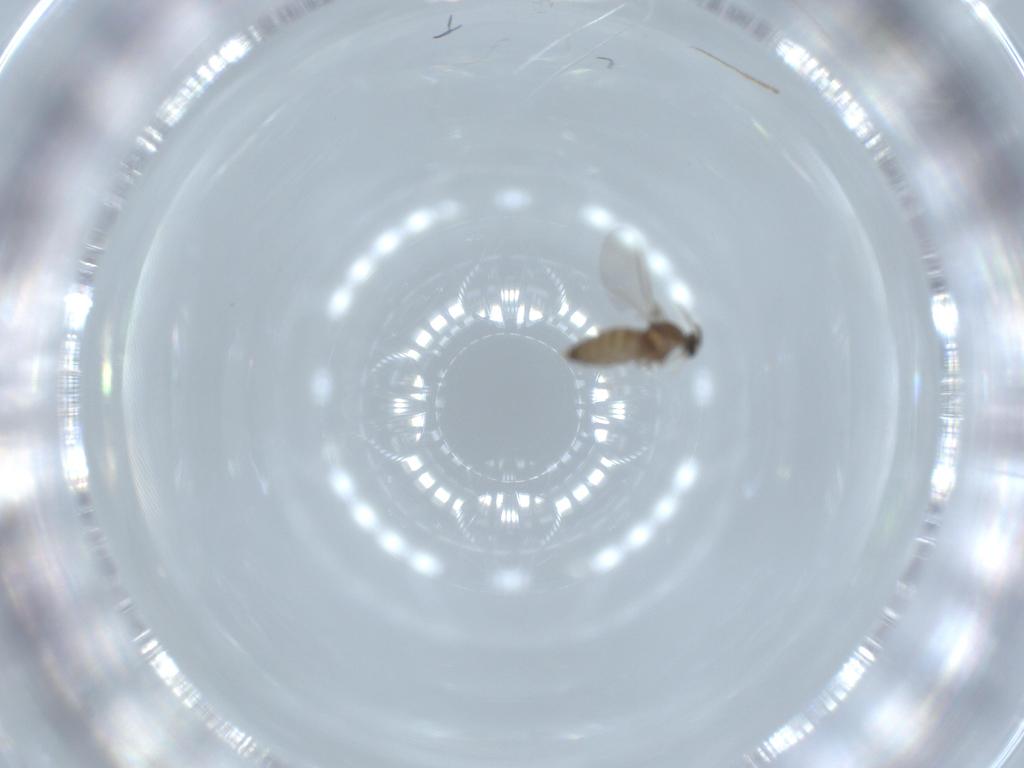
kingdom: Animalia
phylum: Arthropoda
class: Insecta
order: Diptera
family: Cecidomyiidae
